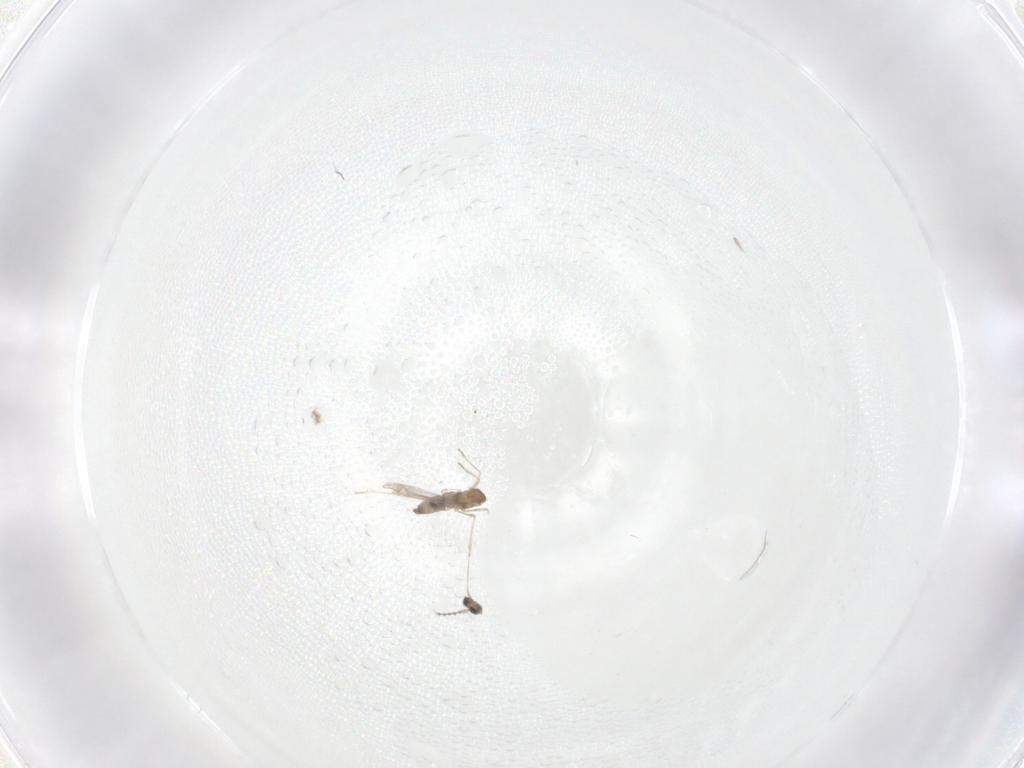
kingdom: Animalia
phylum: Arthropoda
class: Insecta
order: Diptera
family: Cecidomyiidae
